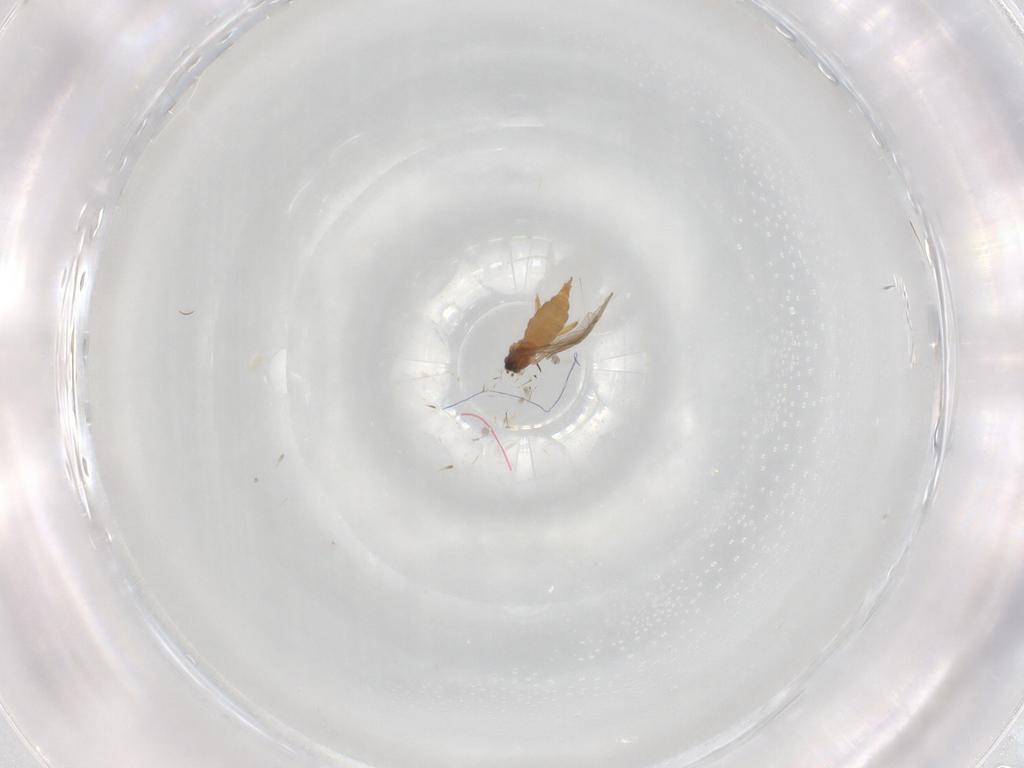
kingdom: Animalia
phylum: Arthropoda
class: Insecta
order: Diptera
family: Cecidomyiidae
